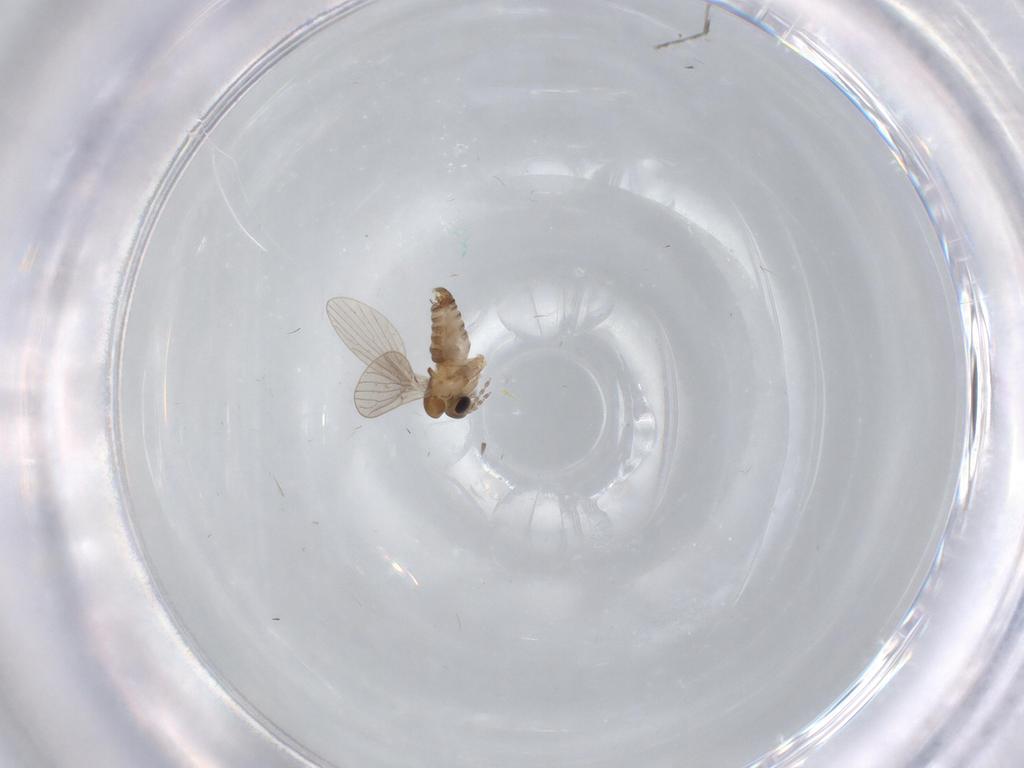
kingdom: Animalia
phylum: Arthropoda
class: Insecta
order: Diptera
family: Psychodidae
